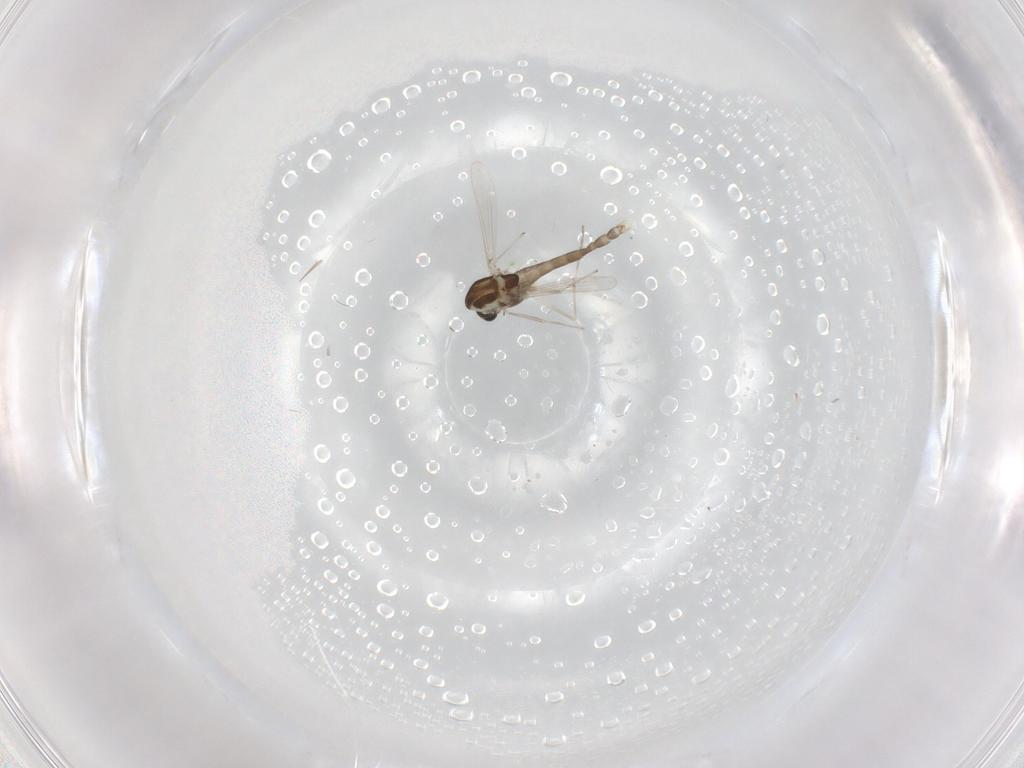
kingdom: Animalia
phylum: Arthropoda
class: Insecta
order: Diptera
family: Chironomidae
